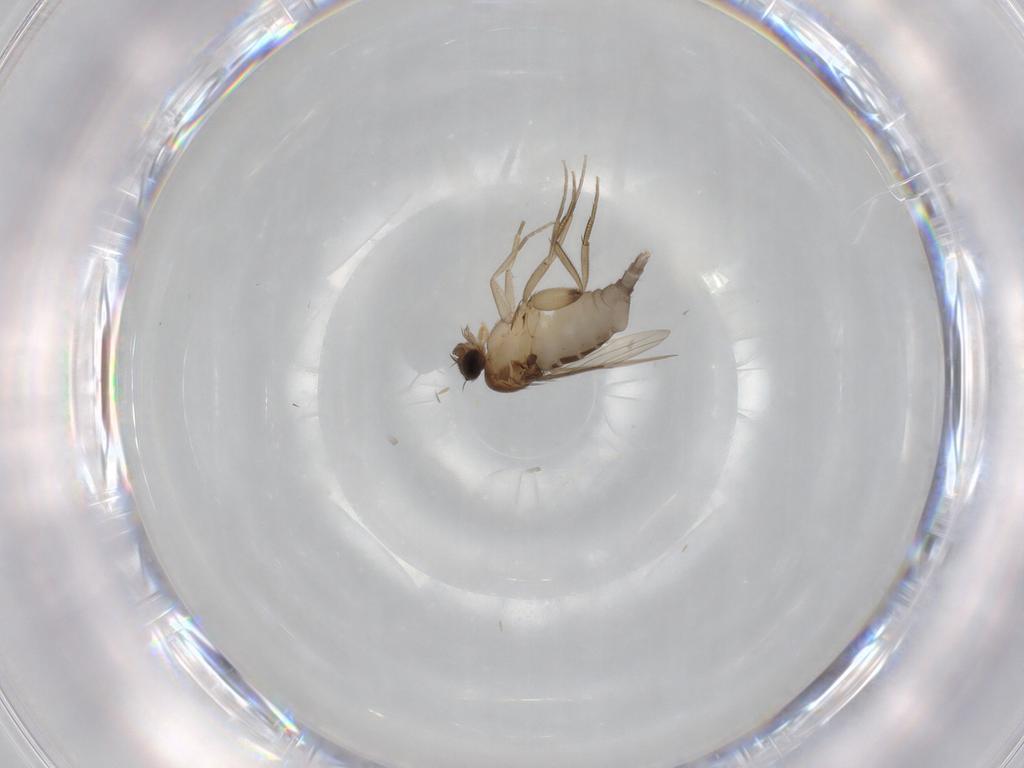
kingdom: Animalia
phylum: Arthropoda
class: Insecta
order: Diptera
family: Phoridae
